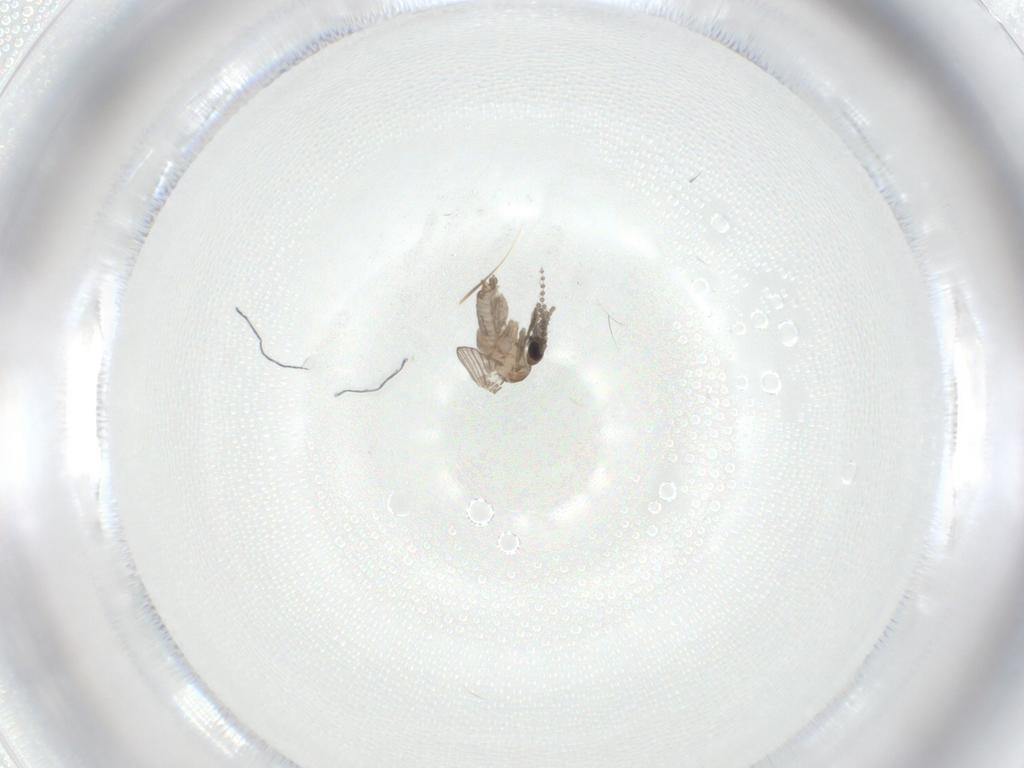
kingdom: Animalia
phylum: Arthropoda
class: Insecta
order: Diptera
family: Psychodidae
